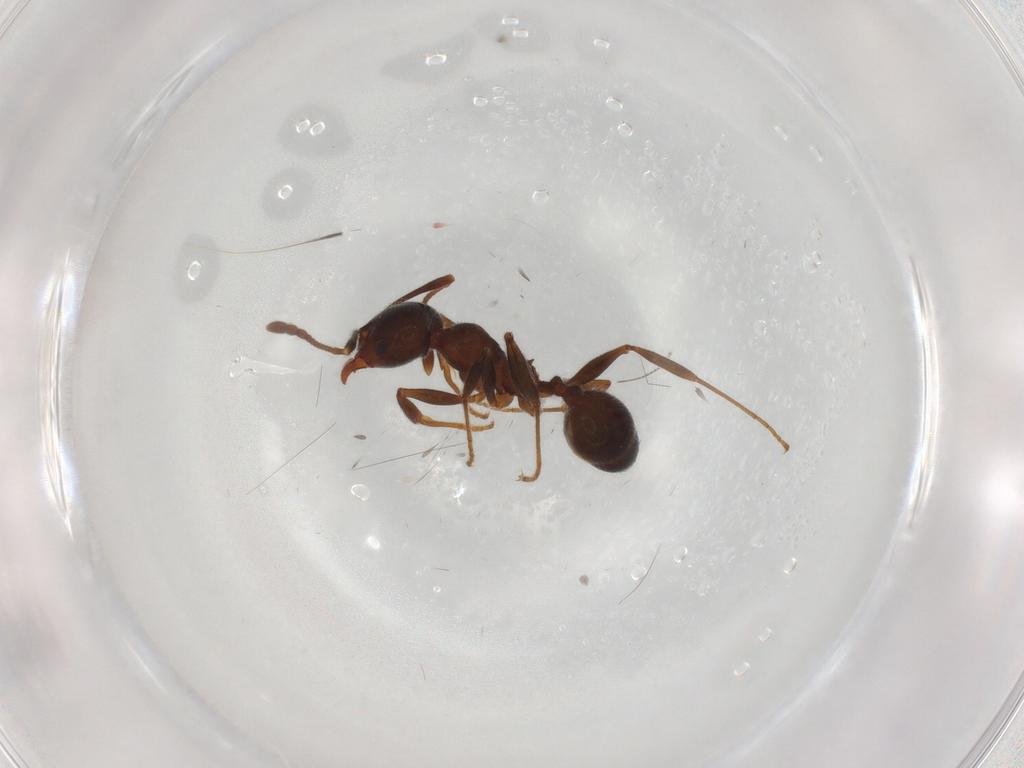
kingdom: Animalia
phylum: Arthropoda
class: Insecta
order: Hymenoptera
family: Formicidae
